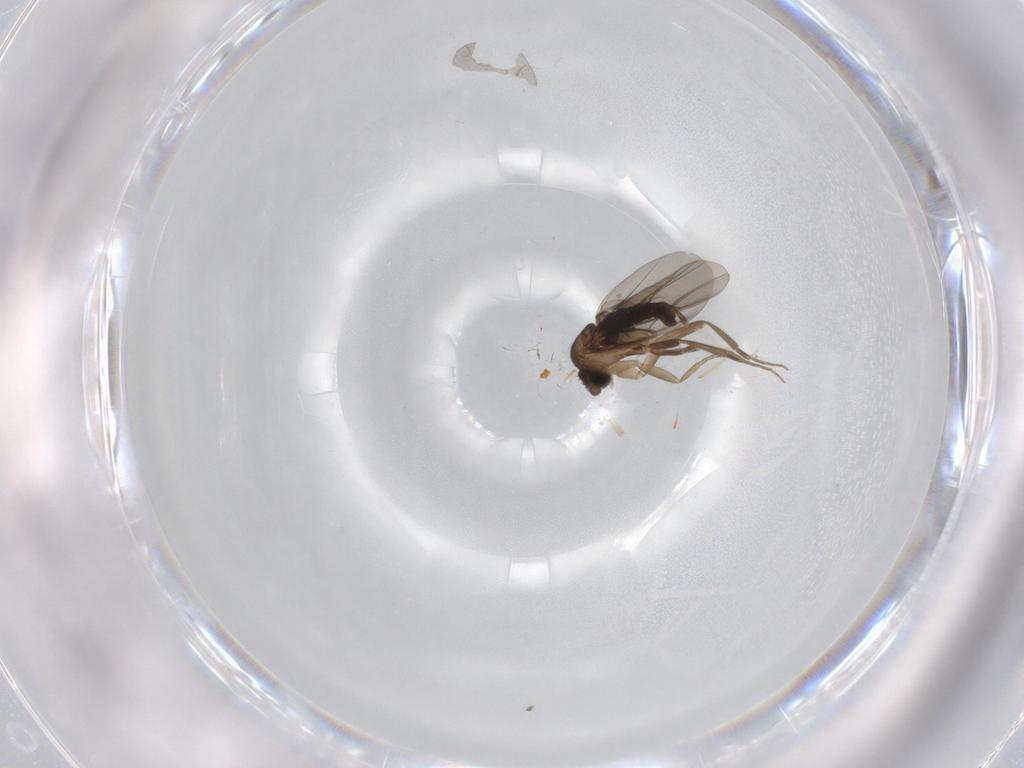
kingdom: Animalia
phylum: Arthropoda
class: Insecta
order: Diptera
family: Phoridae
